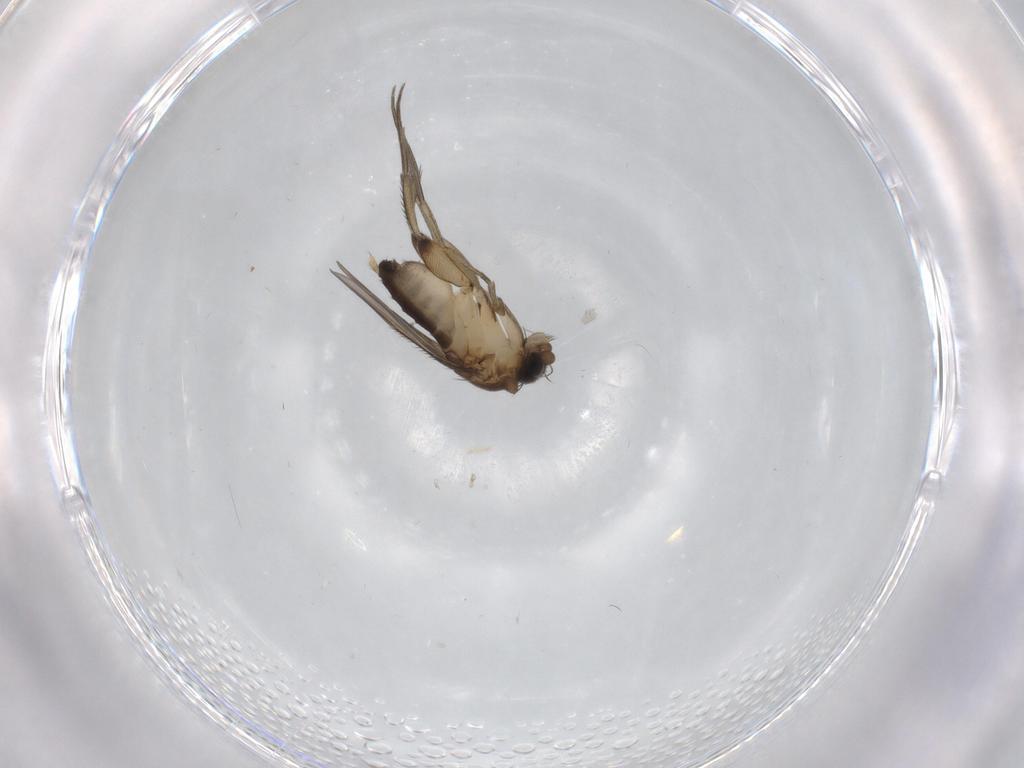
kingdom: Animalia
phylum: Arthropoda
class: Insecta
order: Diptera
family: Phoridae
